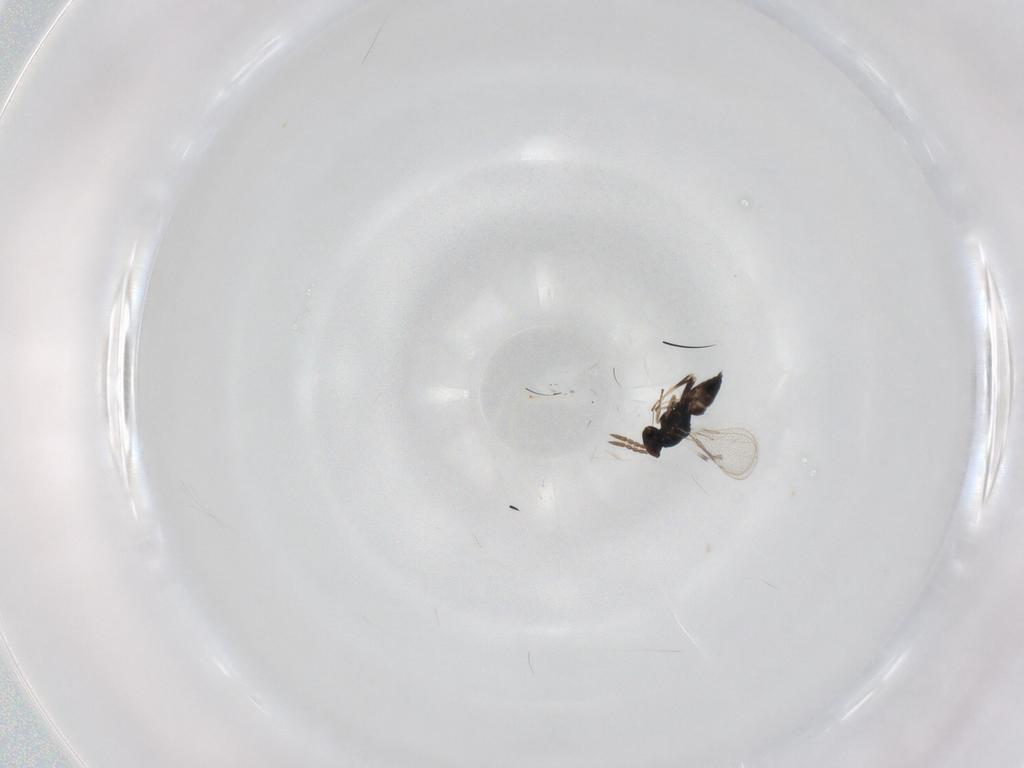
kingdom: Animalia
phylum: Arthropoda
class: Insecta
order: Hymenoptera
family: Eulophidae
